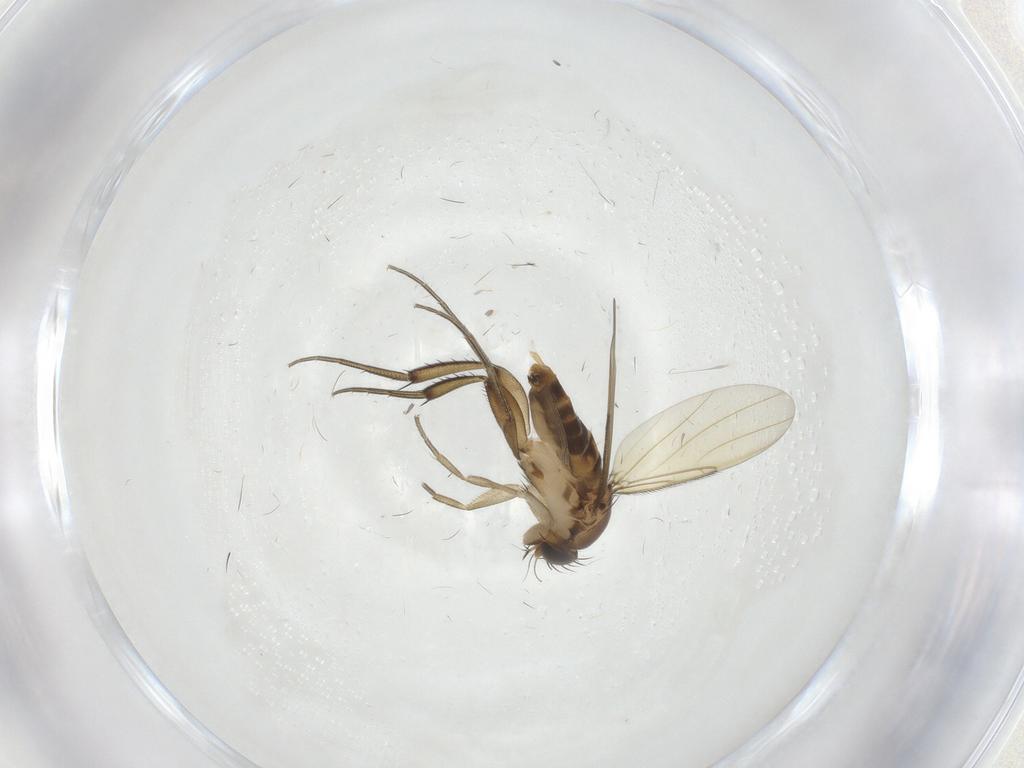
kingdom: Animalia
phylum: Arthropoda
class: Insecta
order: Diptera
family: Phoridae
